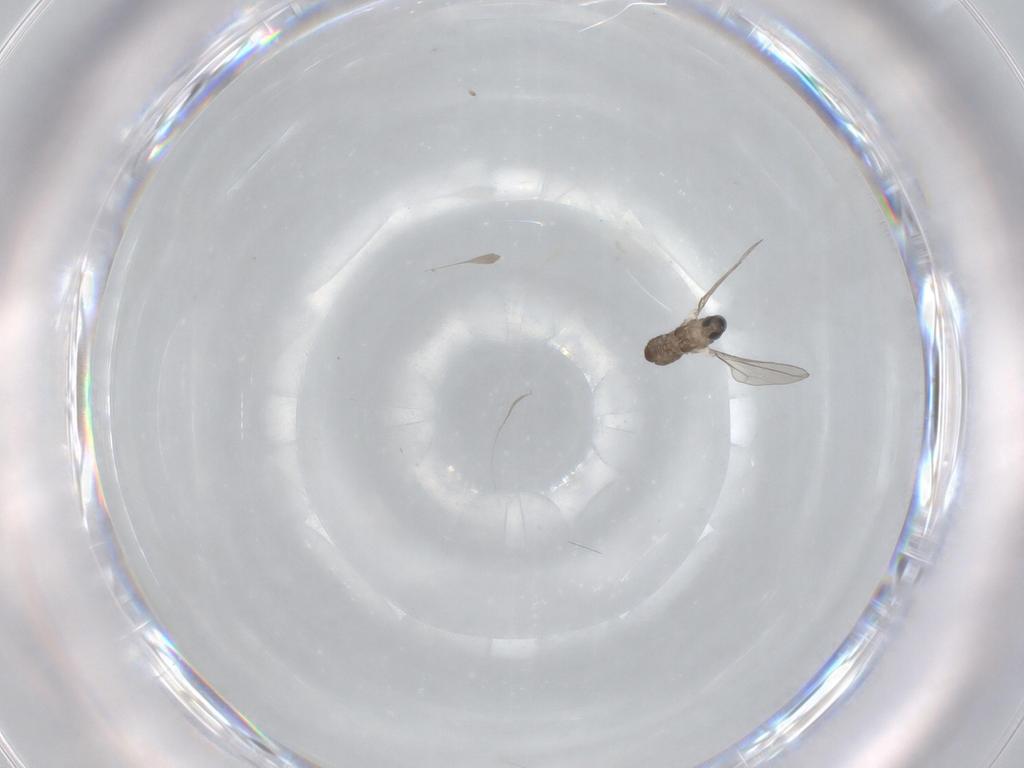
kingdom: Animalia
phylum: Arthropoda
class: Insecta
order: Diptera
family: Cecidomyiidae
